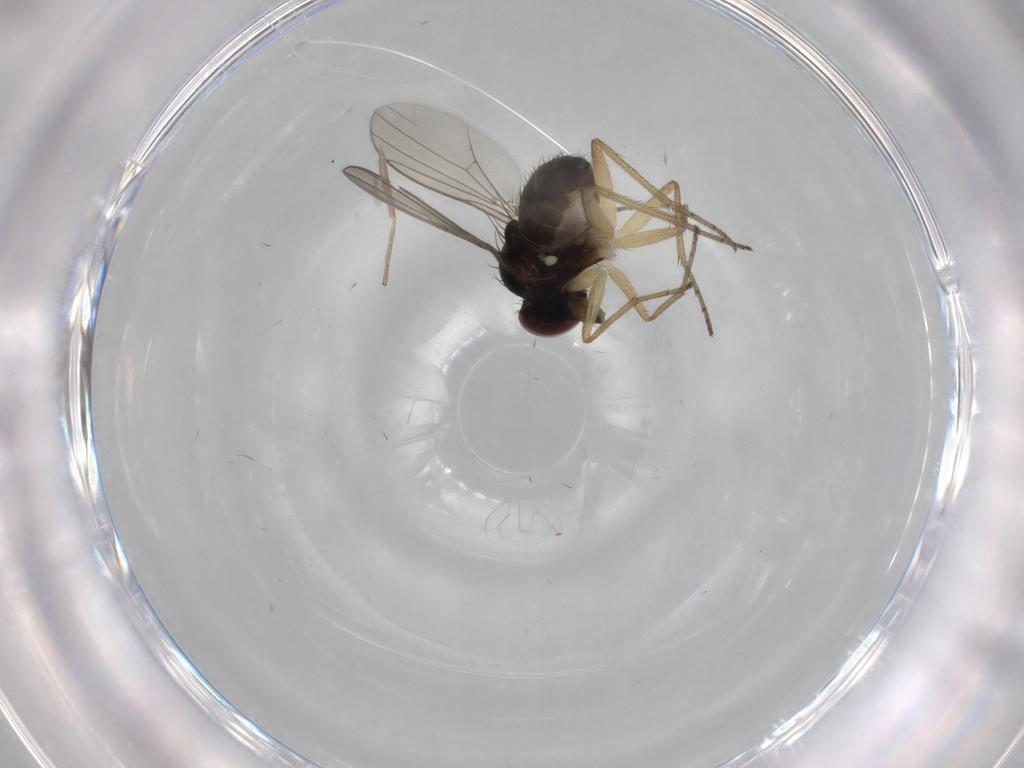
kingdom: Animalia
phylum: Arthropoda
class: Insecta
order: Diptera
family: Dolichopodidae
